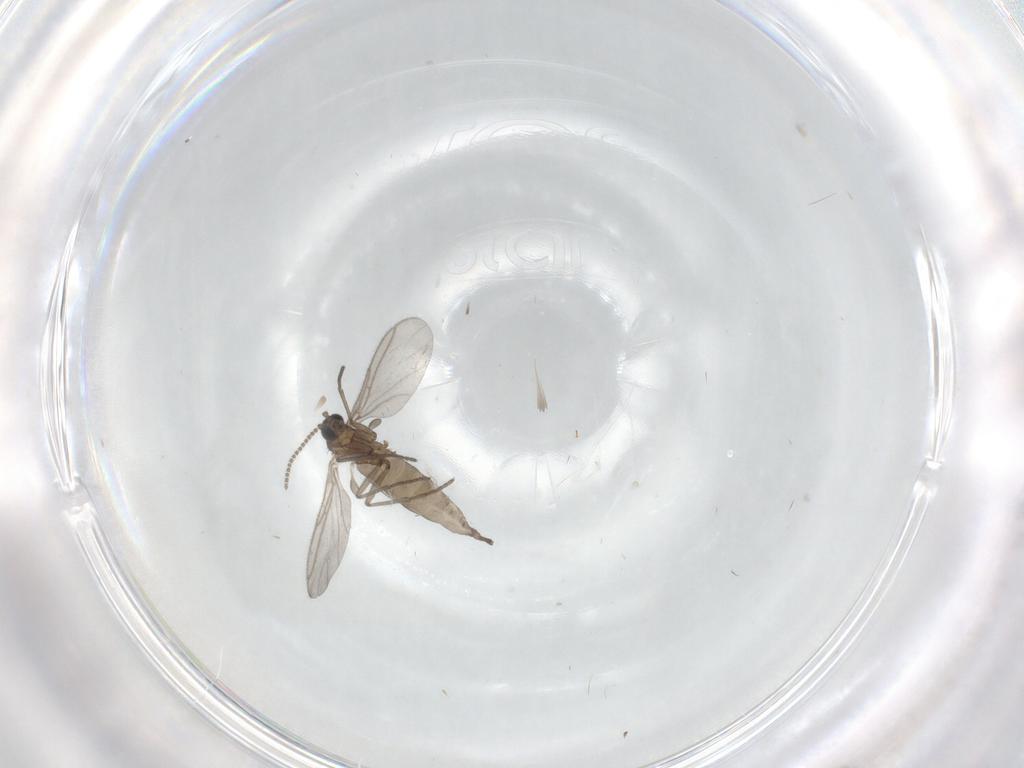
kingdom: Animalia
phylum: Arthropoda
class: Insecta
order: Diptera
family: Sciaridae
